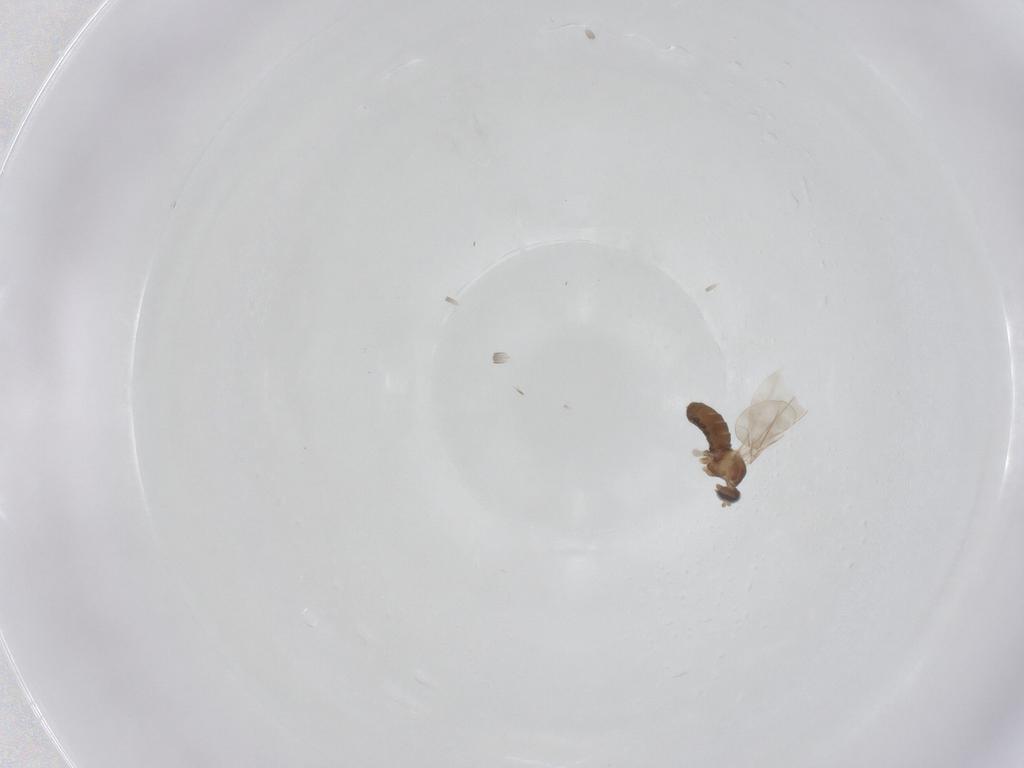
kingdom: Animalia
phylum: Arthropoda
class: Insecta
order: Diptera
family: Cecidomyiidae
